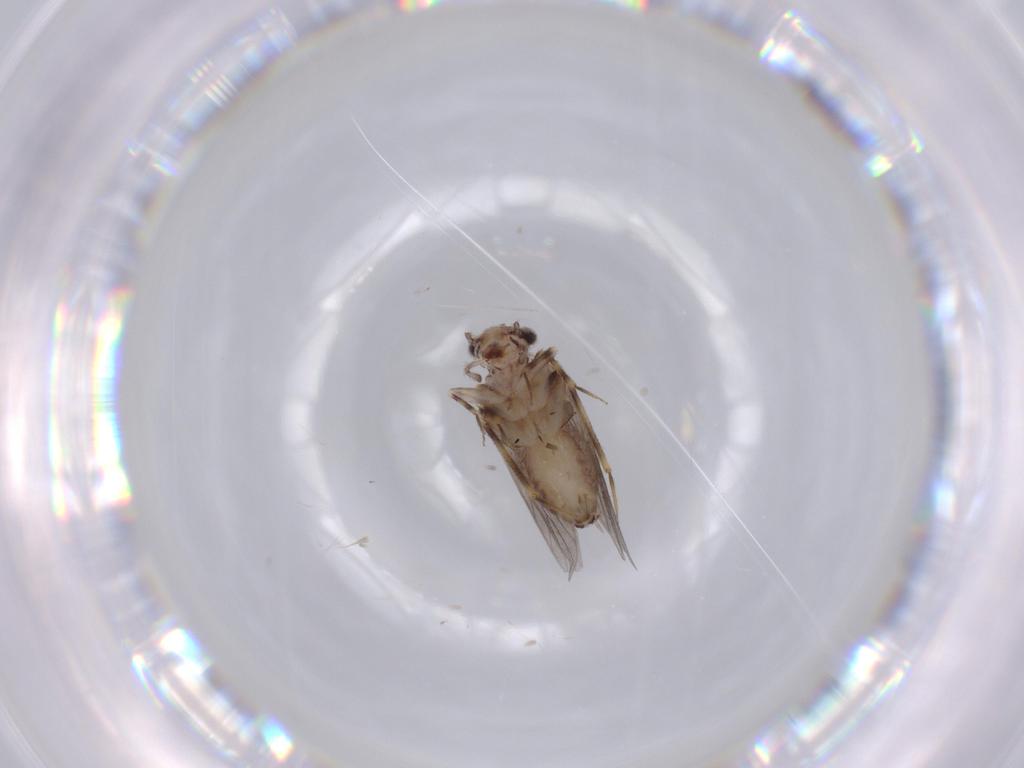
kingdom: Animalia
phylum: Arthropoda
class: Insecta
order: Psocodea
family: Lepidopsocidae
